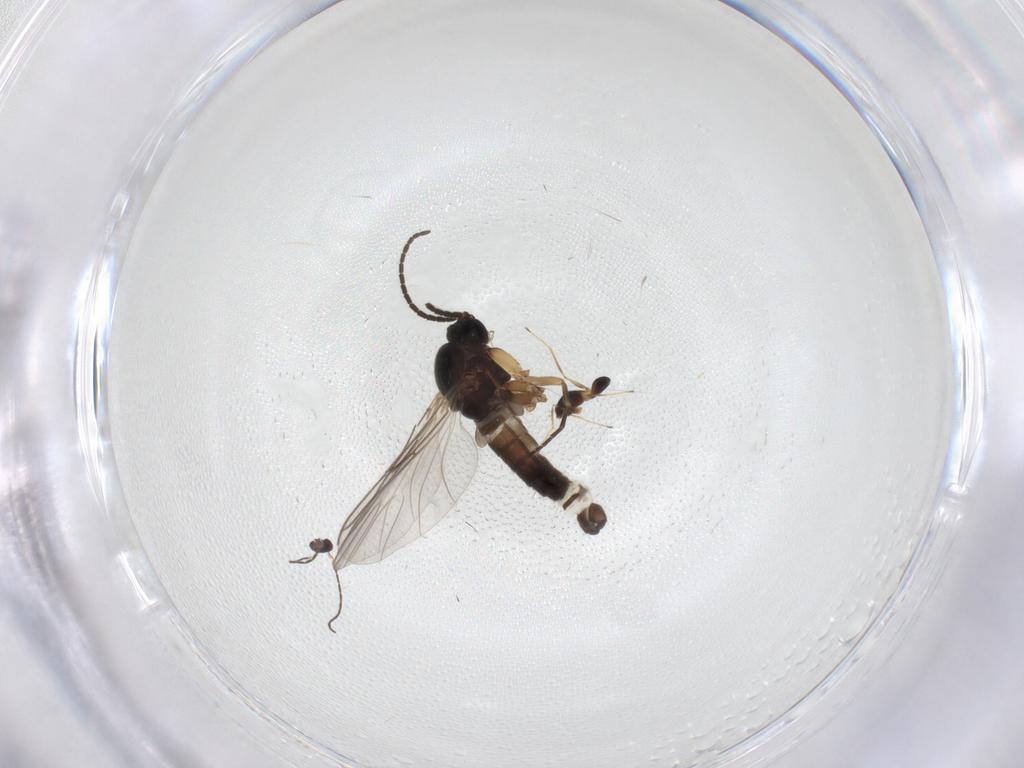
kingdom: Animalia
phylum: Arthropoda
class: Insecta
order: Diptera
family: Sciaridae
